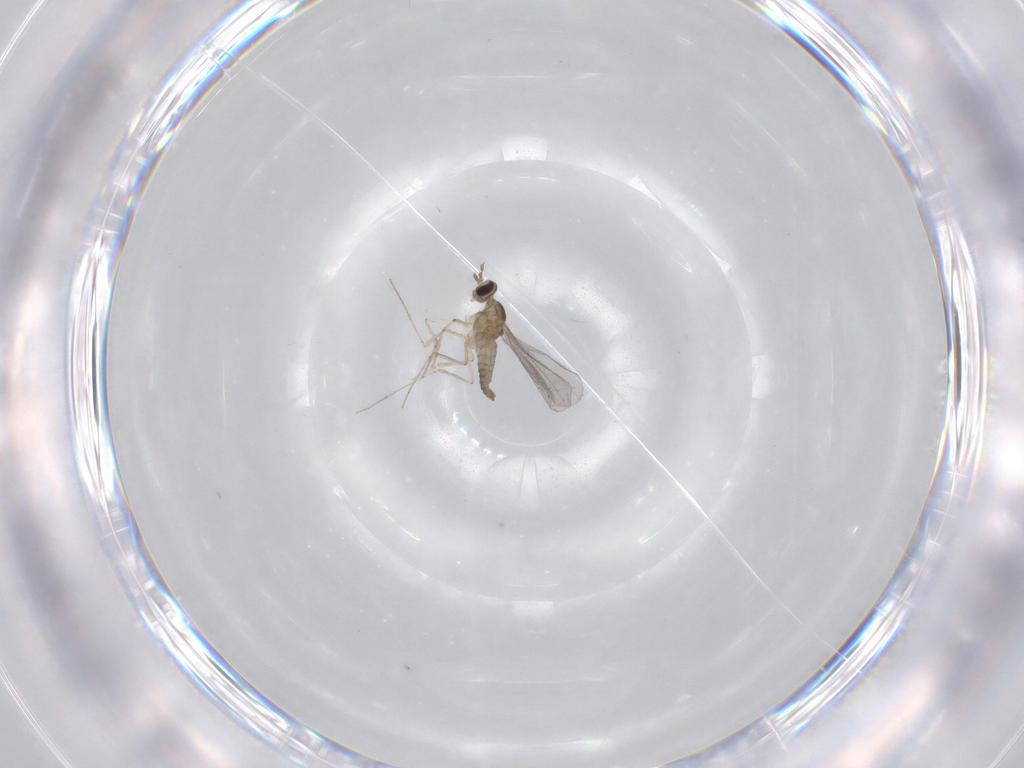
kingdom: Animalia
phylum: Arthropoda
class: Insecta
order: Diptera
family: Cecidomyiidae
